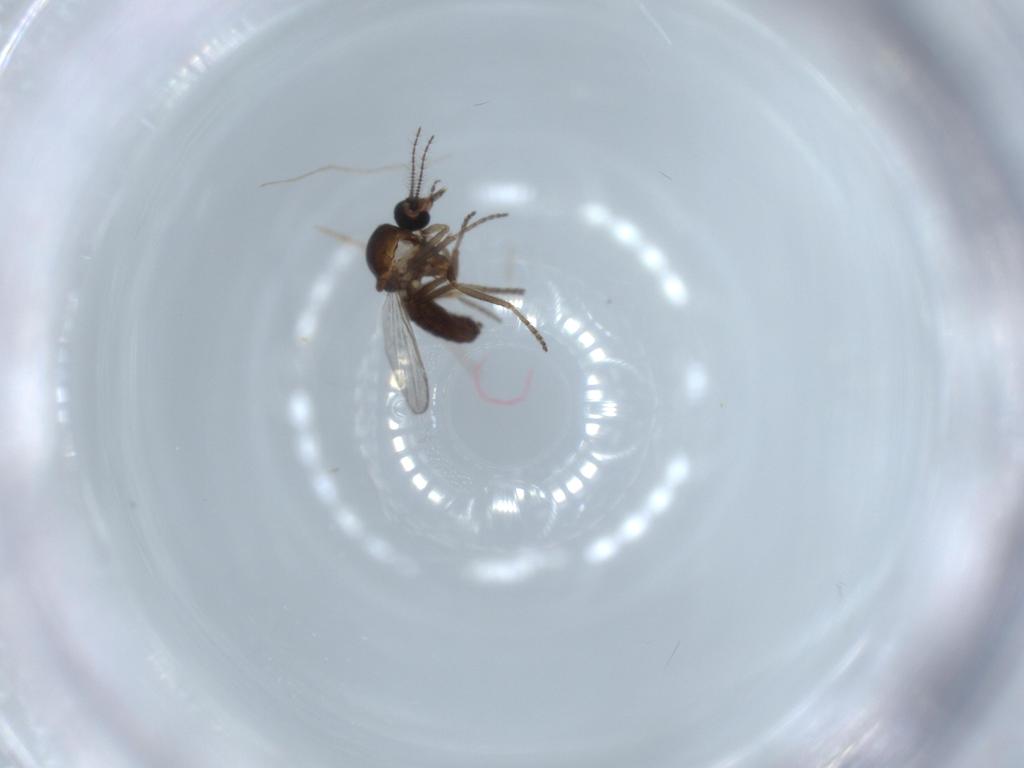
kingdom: Animalia
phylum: Arthropoda
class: Insecta
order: Diptera
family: Ceratopogonidae
